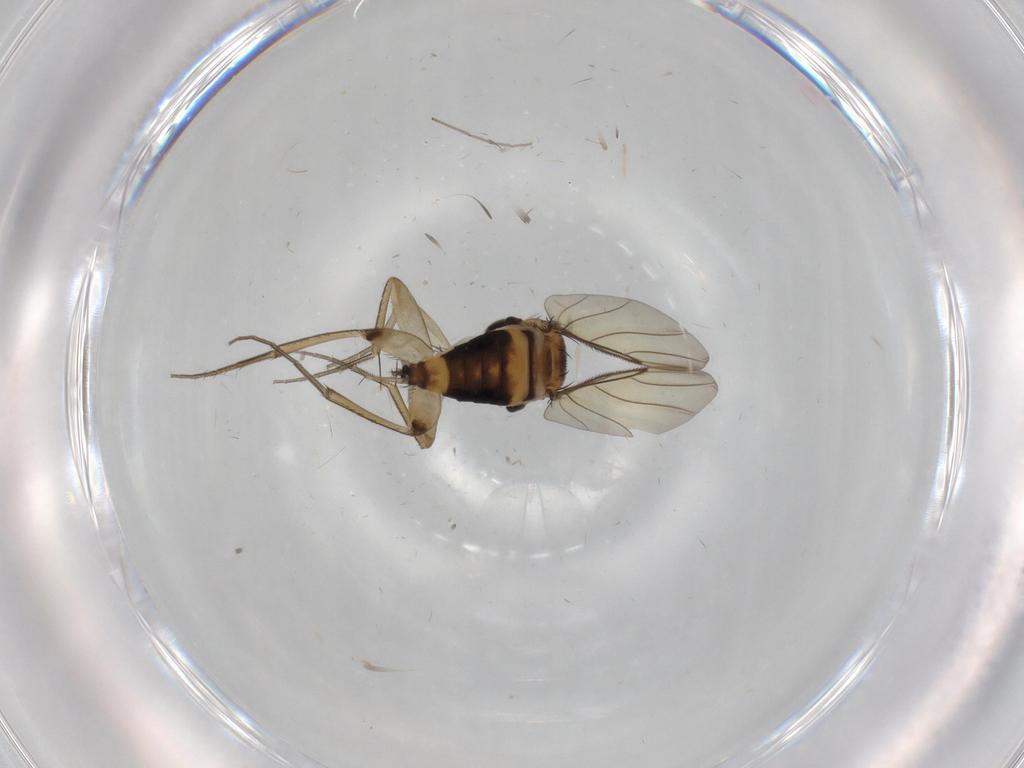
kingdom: Animalia
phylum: Arthropoda
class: Insecta
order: Diptera
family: Phoridae
